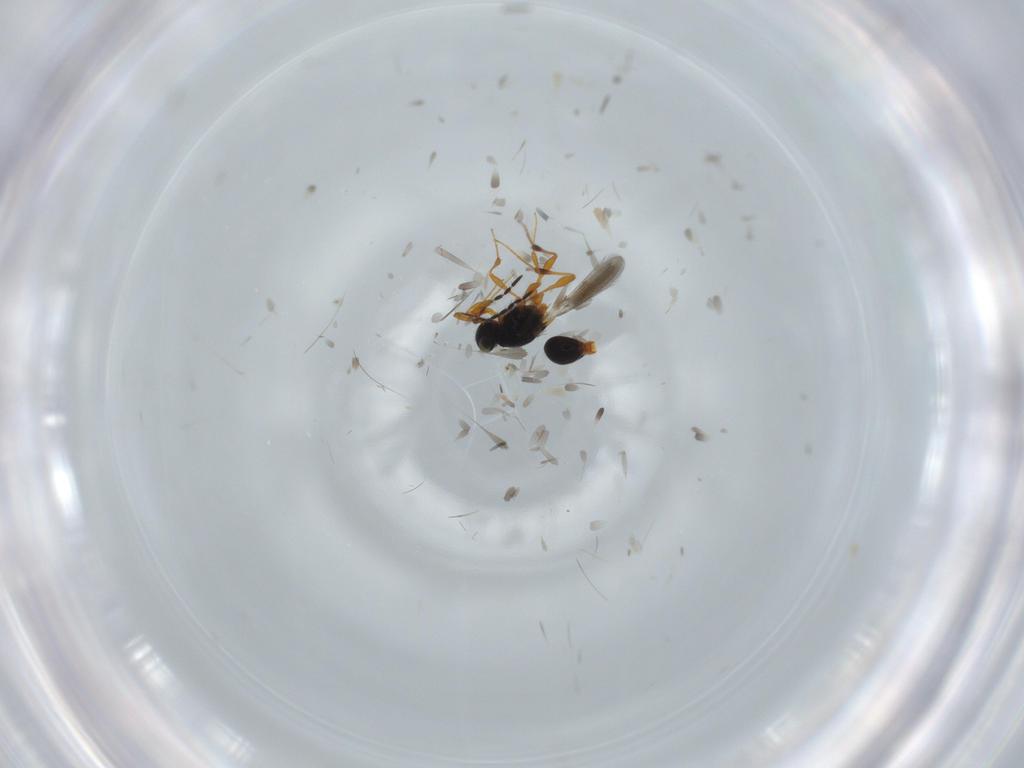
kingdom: Animalia
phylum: Arthropoda
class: Insecta
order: Hymenoptera
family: Platygastridae
